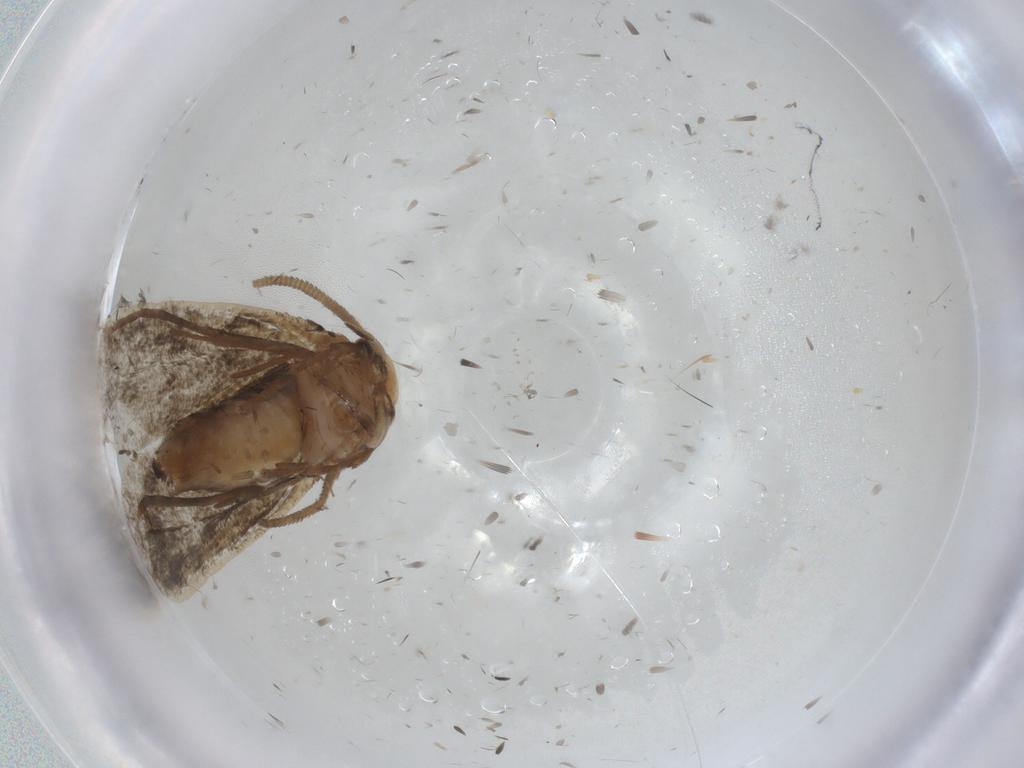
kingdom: Animalia
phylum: Arthropoda
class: Insecta
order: Lepidoptera
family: Dryadaulidae
